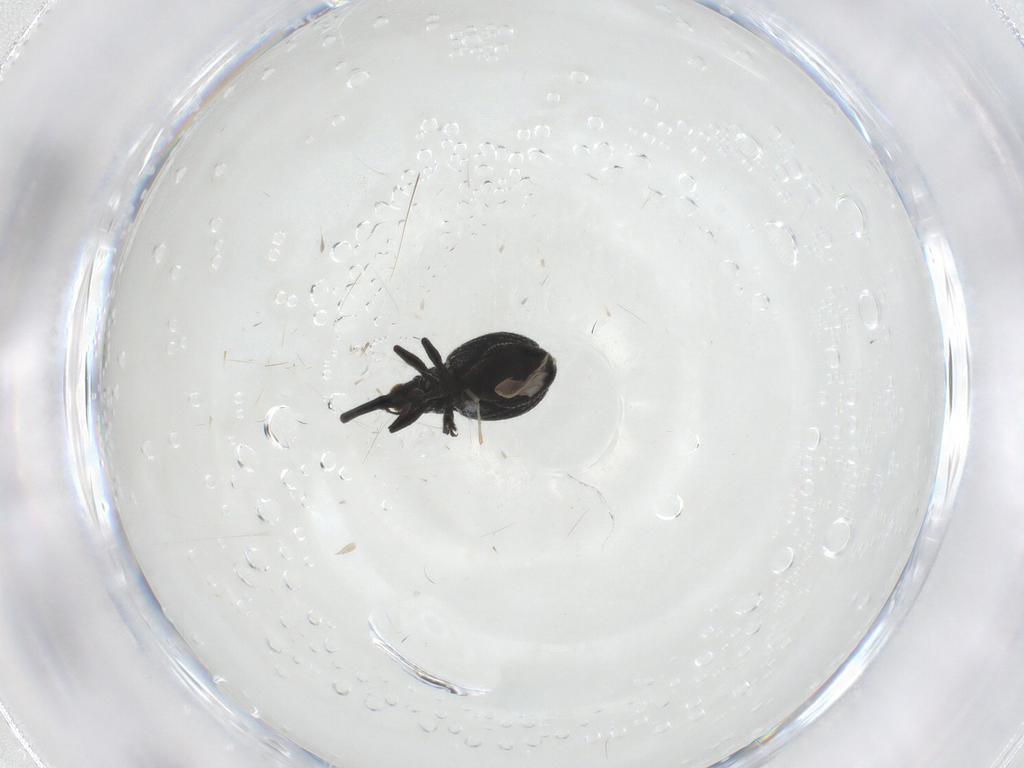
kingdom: Animalia
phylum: Arthropoda
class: Insecta
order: Coleoptera
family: Brentidae
